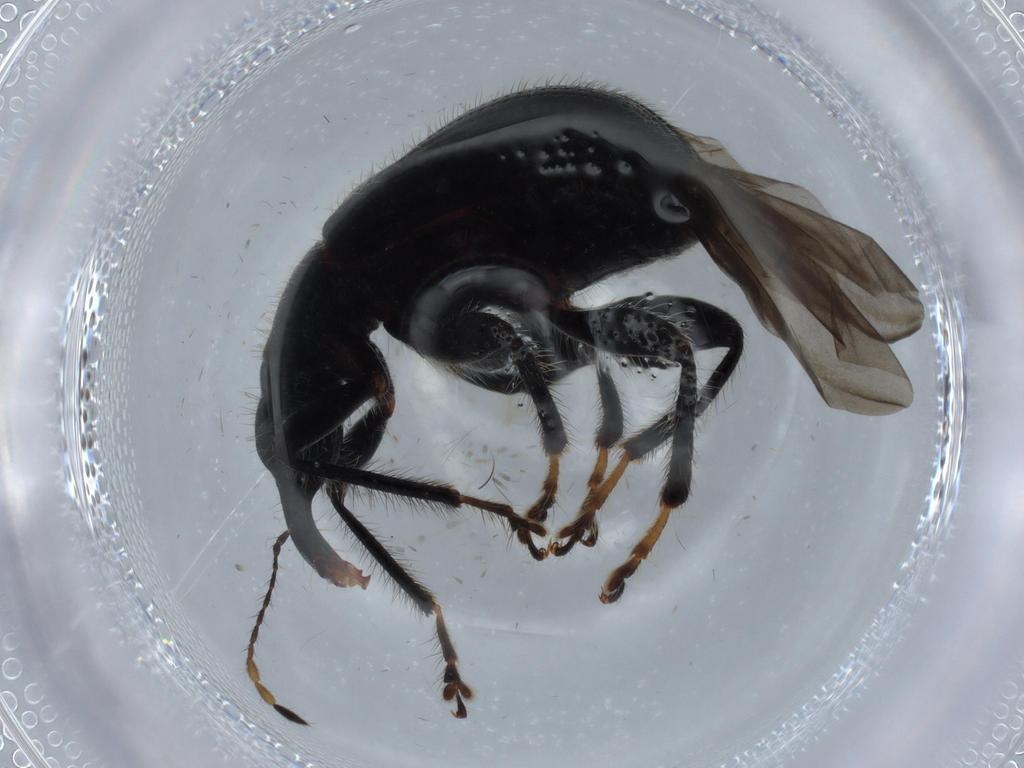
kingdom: Animalia
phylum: Arthropoda
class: Insecta
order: Coleoptera
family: Attelabidae
